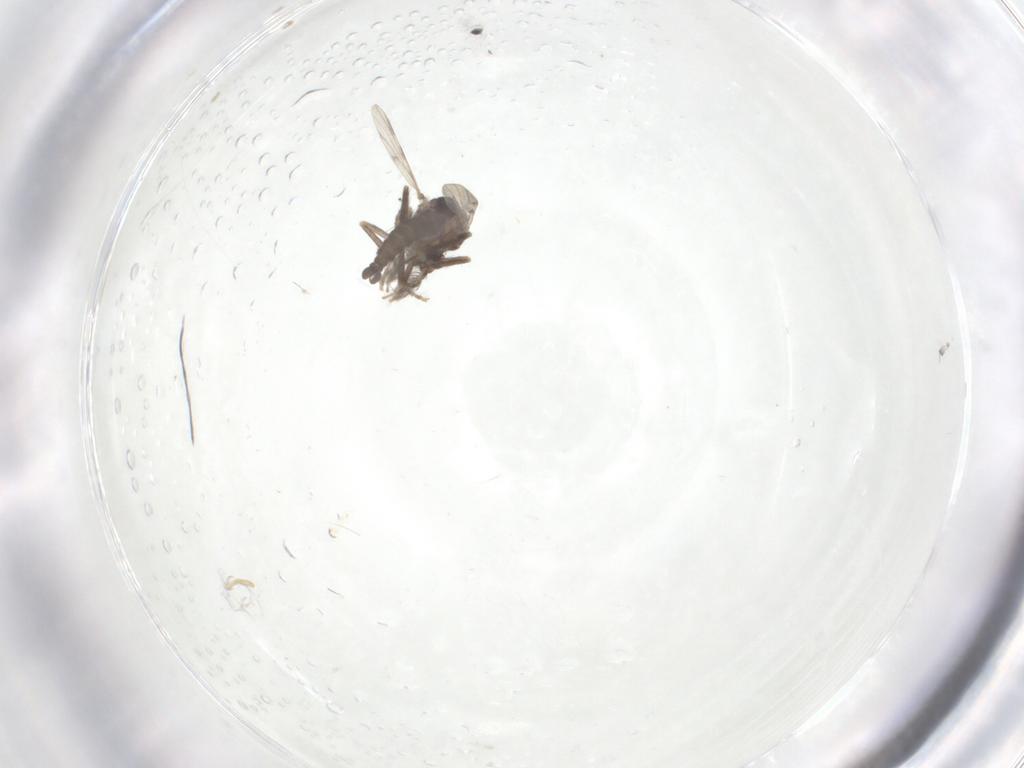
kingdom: Animalia
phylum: Arthropoda
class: Insecta
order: Diptera
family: Ceratopogonidae
